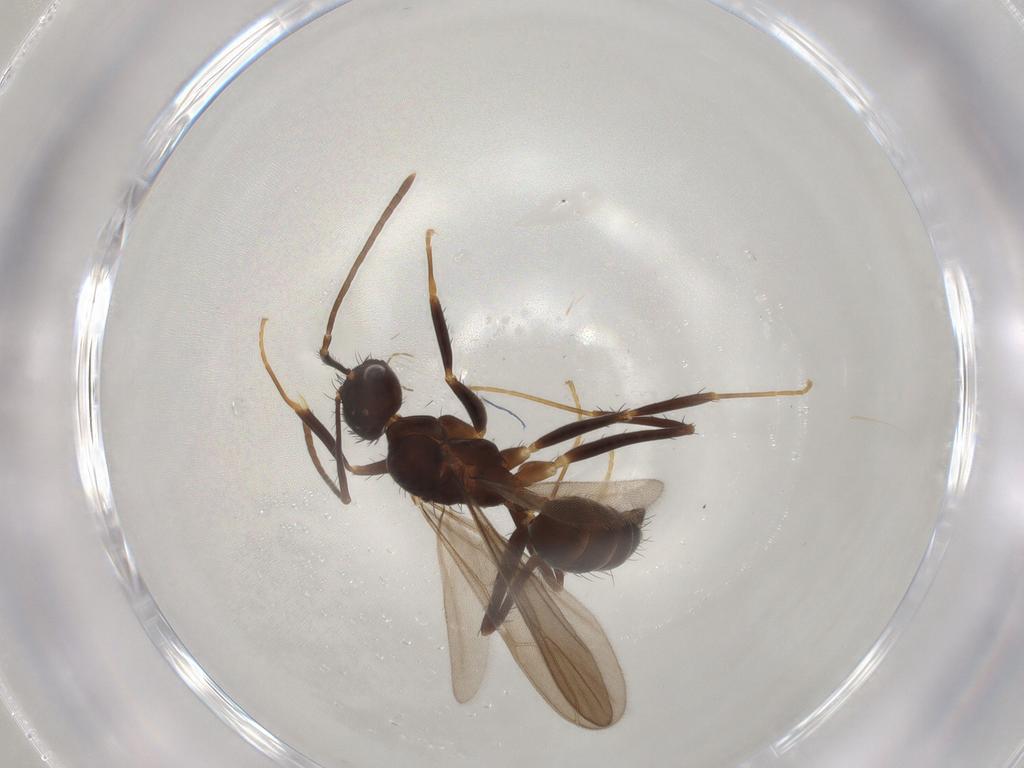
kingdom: Animalia
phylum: Arthropoda
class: Insecta
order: Hymenoptera
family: Formicidae
